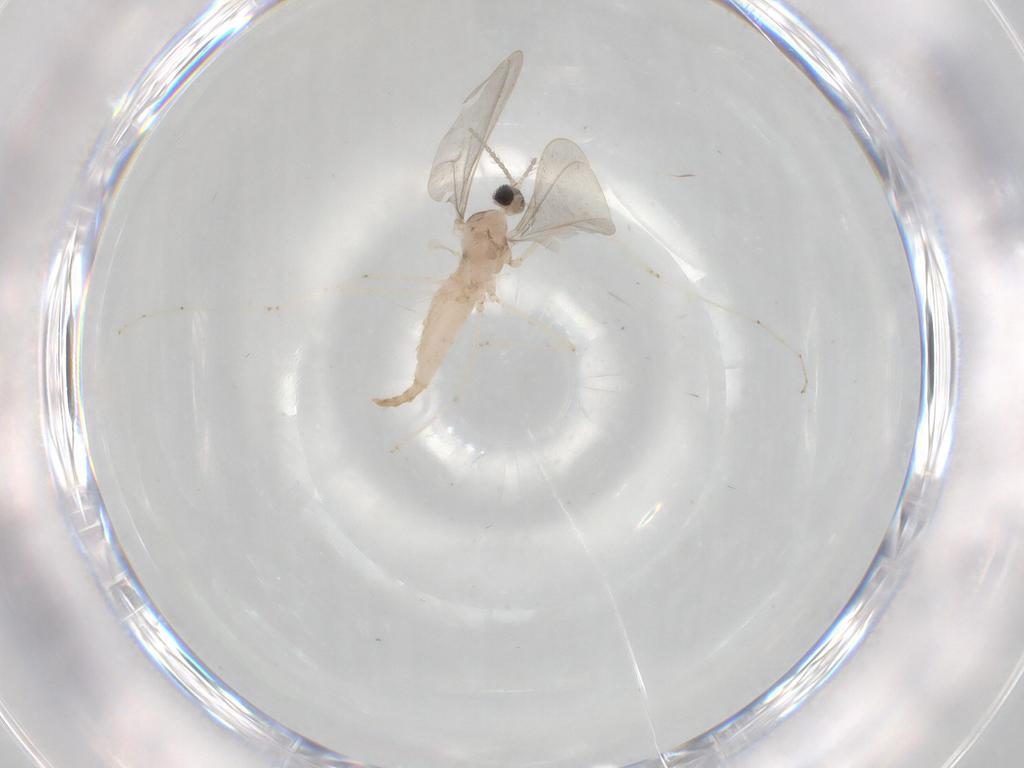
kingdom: Animalia
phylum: Arthropoda
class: Insecta
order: Diptera
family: Cecidomyiidae
